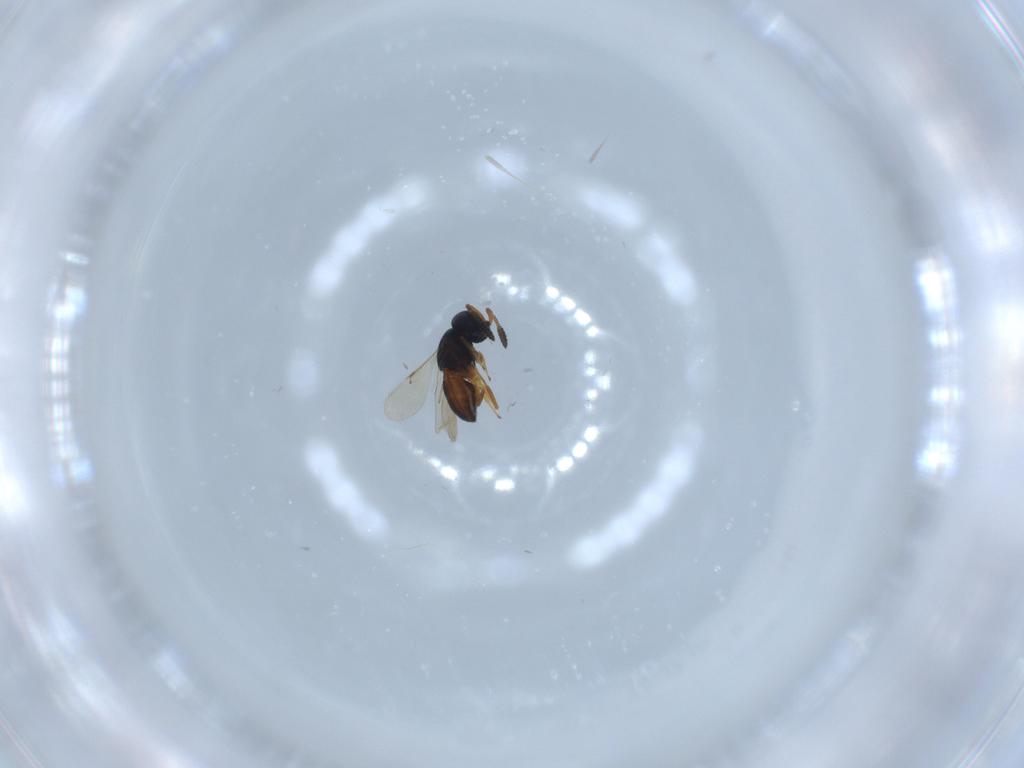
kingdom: Animalia
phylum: Arthropoda
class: Insecta
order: Hymenoptera
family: Scelionidae
